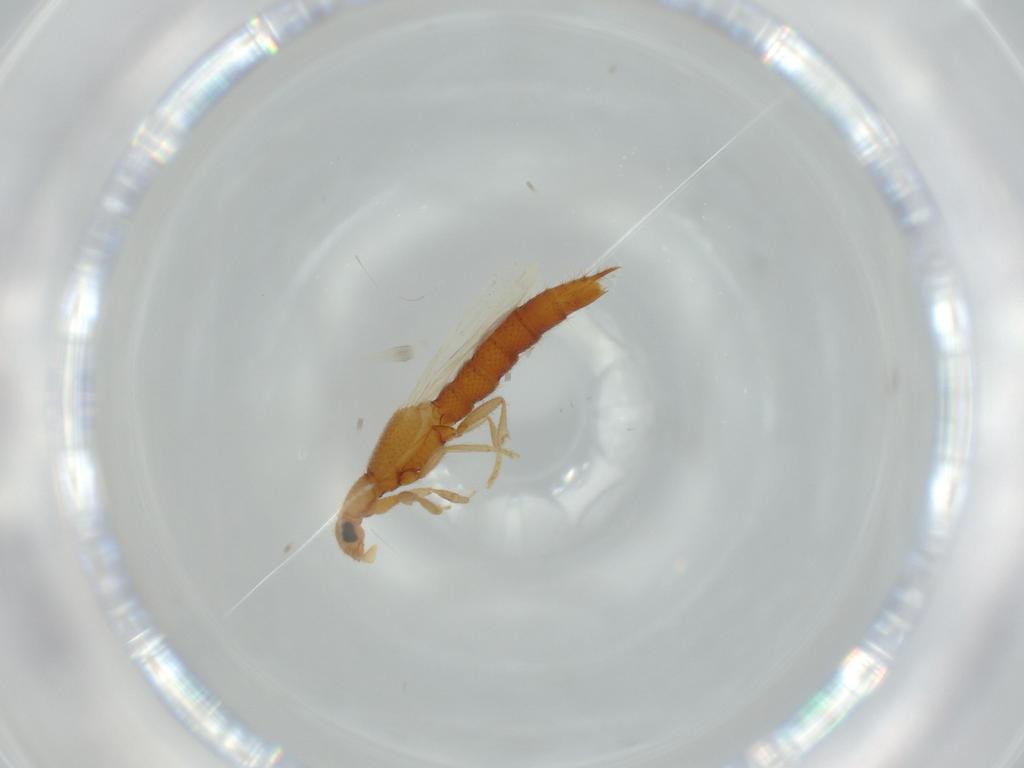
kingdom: Animalia
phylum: Arthropoda
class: Insecta
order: Coleoptera
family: Staphylinidae
